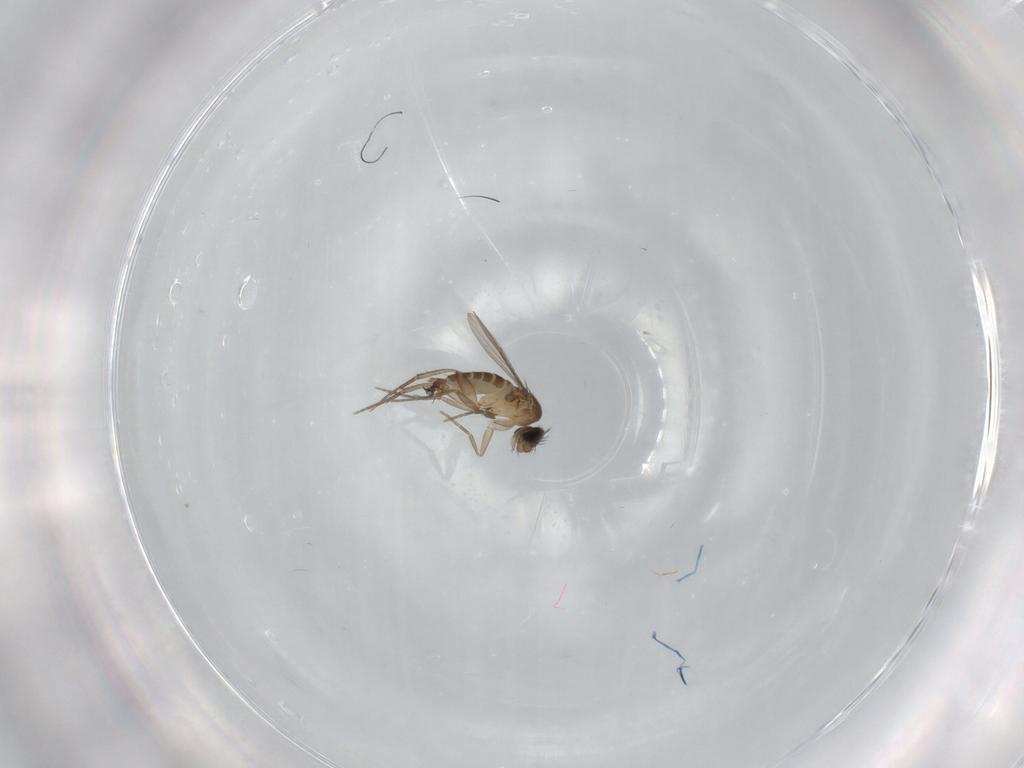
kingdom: Animalia
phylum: Arthropoda
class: Insecta
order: Diptera
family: Phoridae
